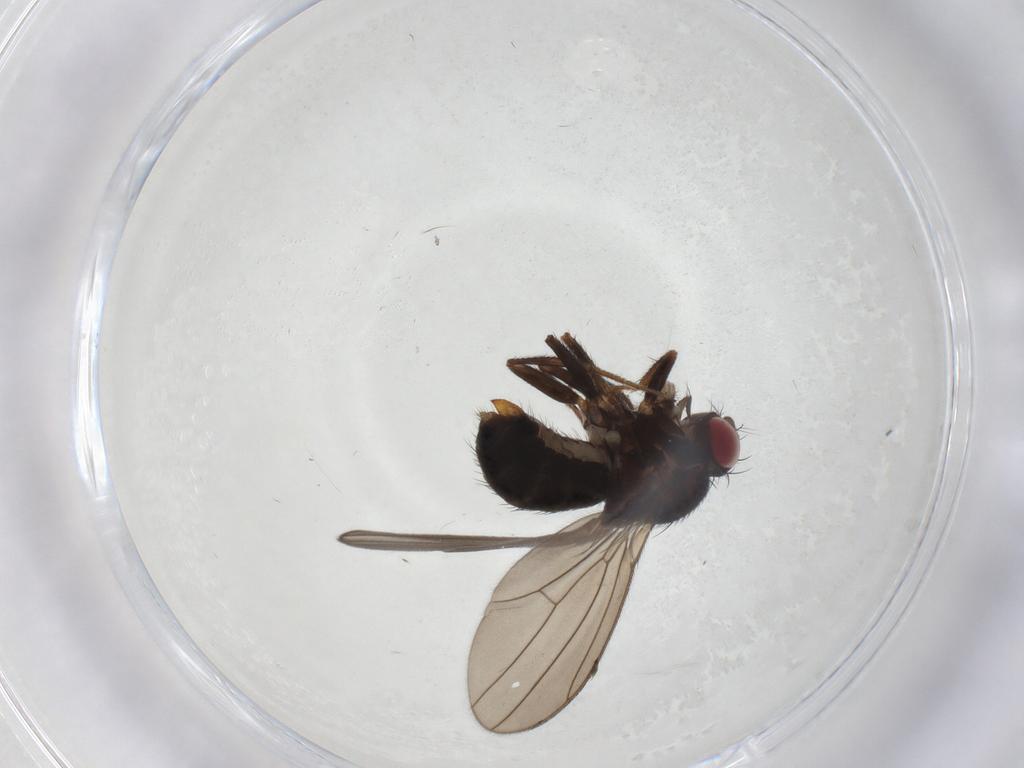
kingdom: Animalia
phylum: Arthropoda
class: Insecta
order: Diptera
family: Drosophilidae
